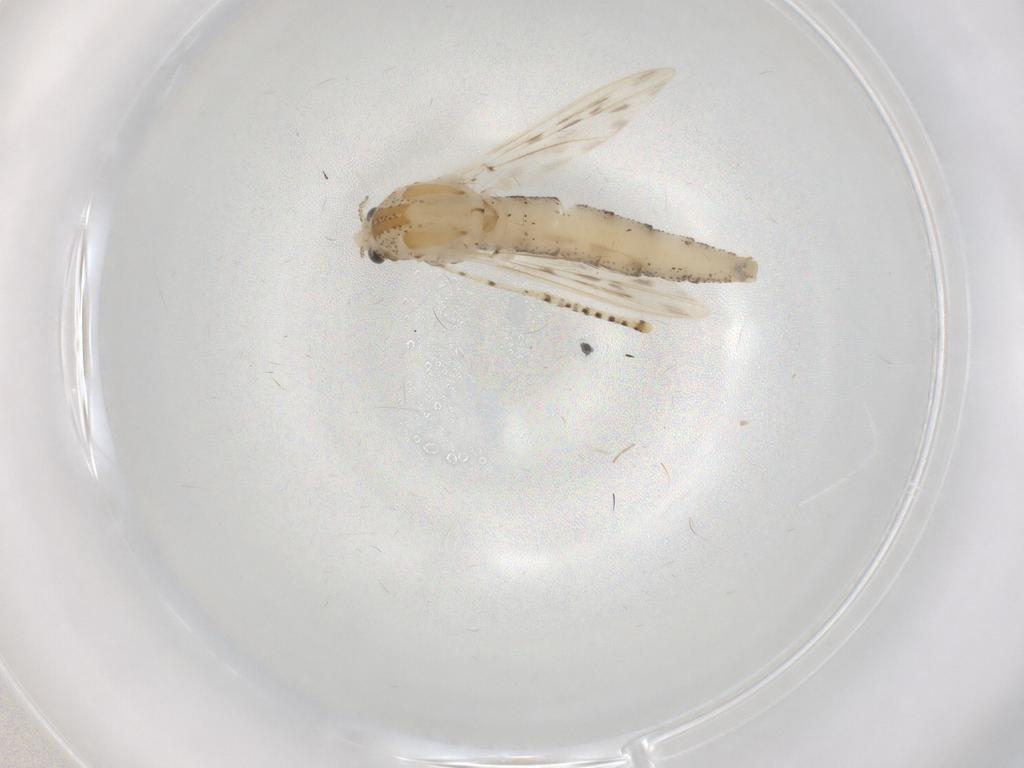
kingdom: Animalia
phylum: Arthropoda
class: Insecta
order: Diptera
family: Chaoboridae
